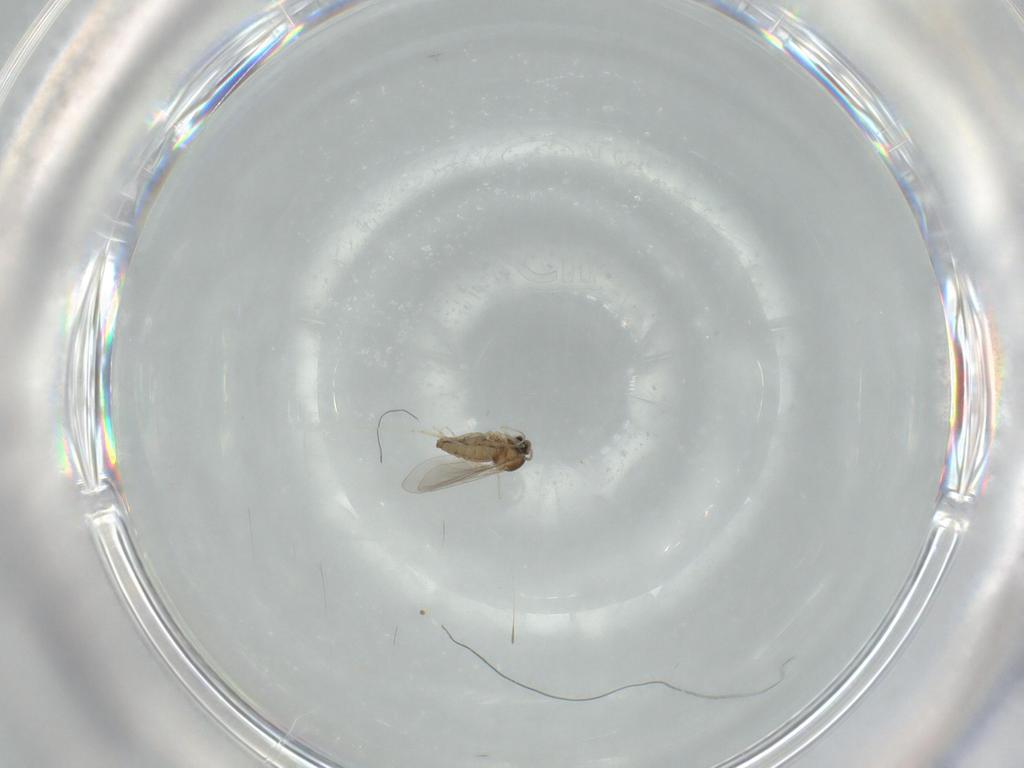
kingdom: Animalia
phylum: Arthropoda
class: Insecta
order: Diptera
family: Cecidomyiidae
